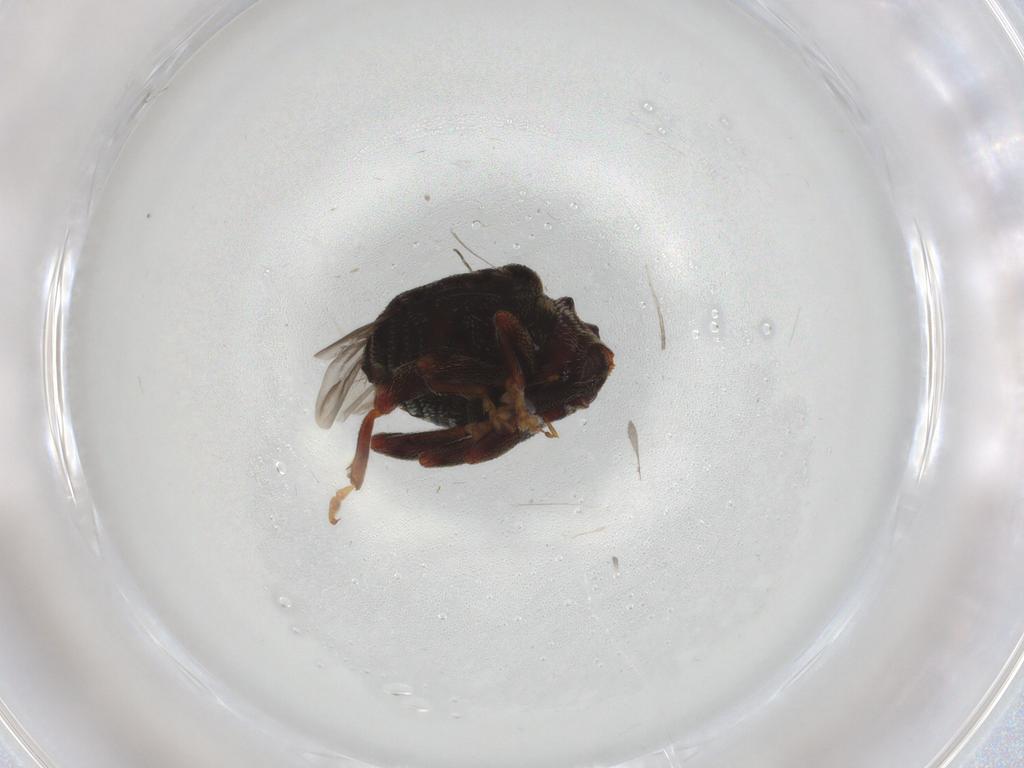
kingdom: Animalia
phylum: Arthropoda
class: Insecta
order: Coleoptera
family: Curculionidae
